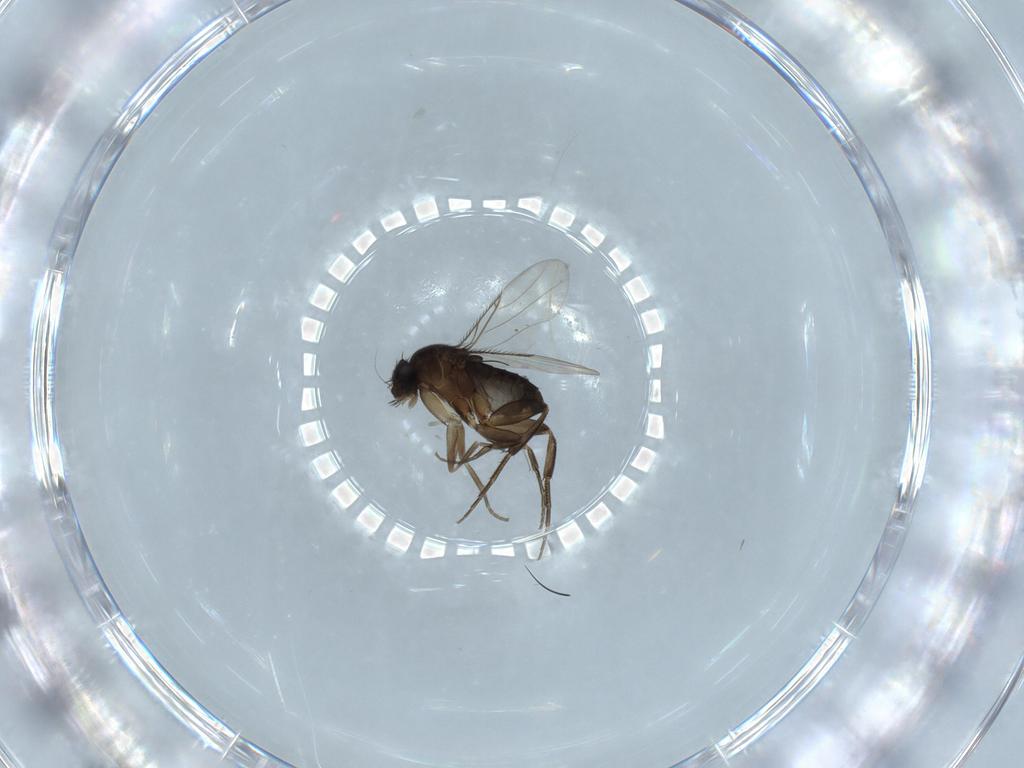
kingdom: Animalia
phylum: Arthropoda
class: Insecta
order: Diptera
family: Phoridae
